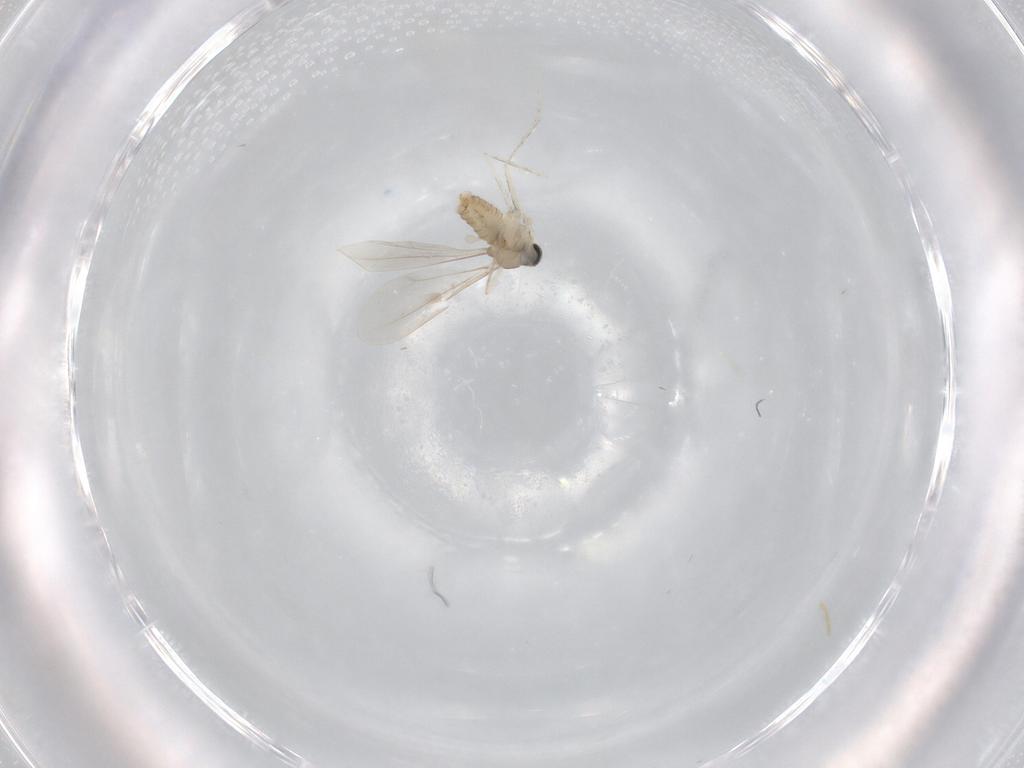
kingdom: Animalia
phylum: Arthropoda
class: Insecta
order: Diptera
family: Cecidomyiidae
